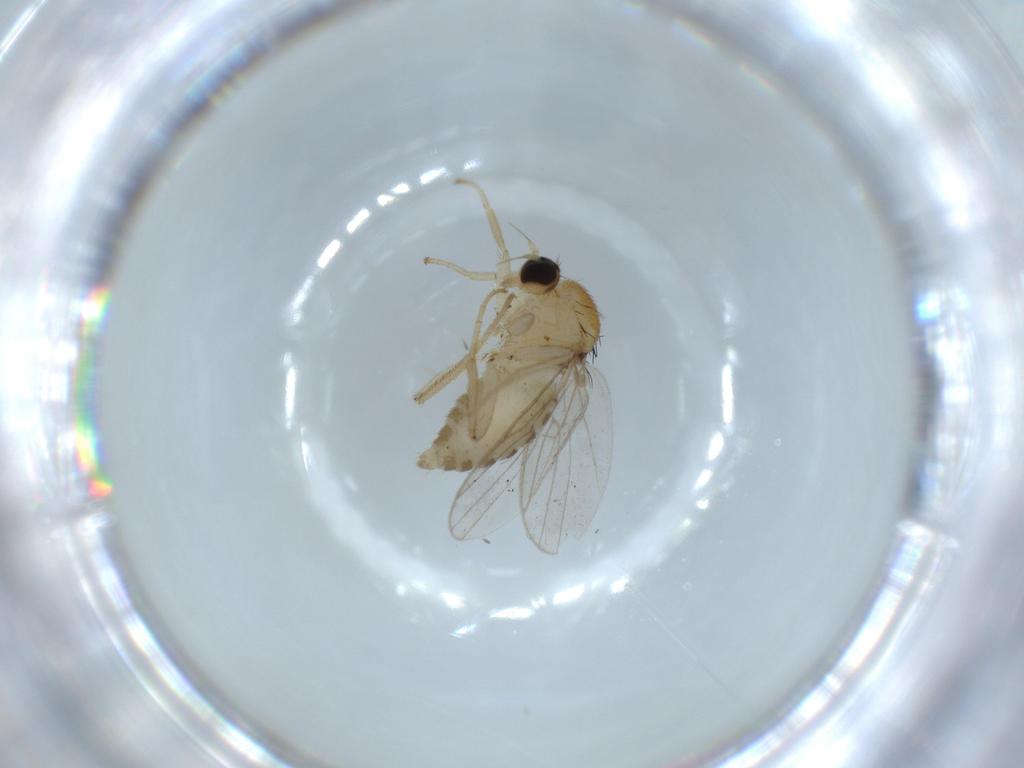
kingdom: Animalia
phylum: Arthropoda
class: Insecta
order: Diptera
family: Hybotidae
